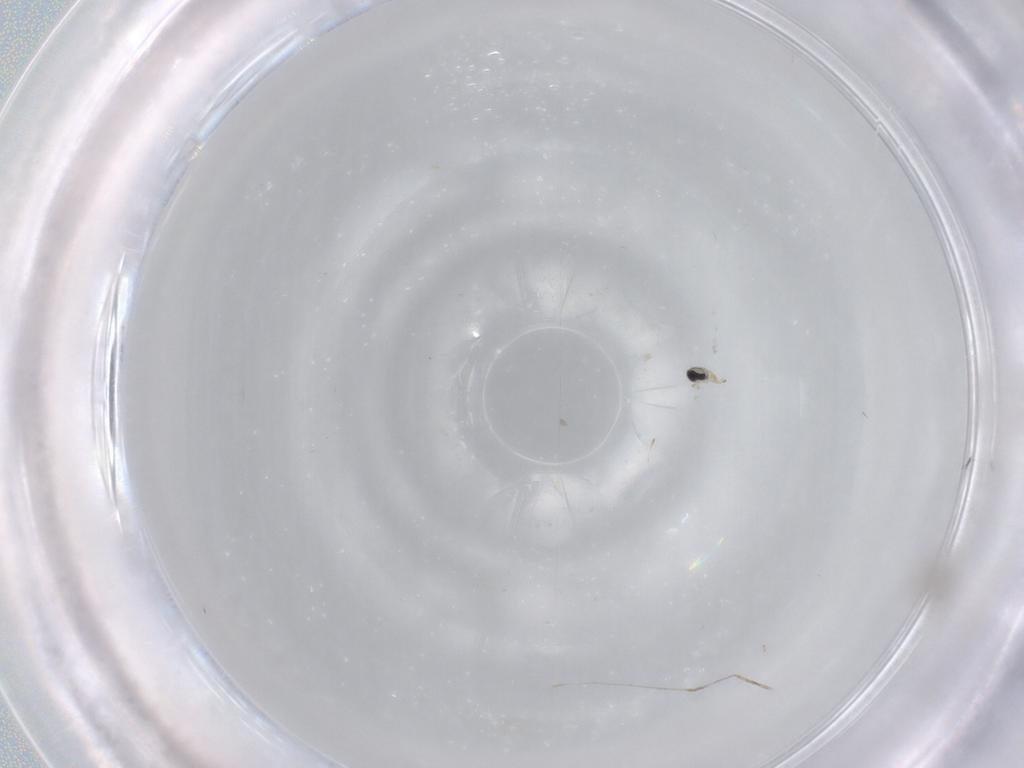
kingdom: Animalia
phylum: Arthropoda
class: Insecta
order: Diptera
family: Cecidomyiidae
